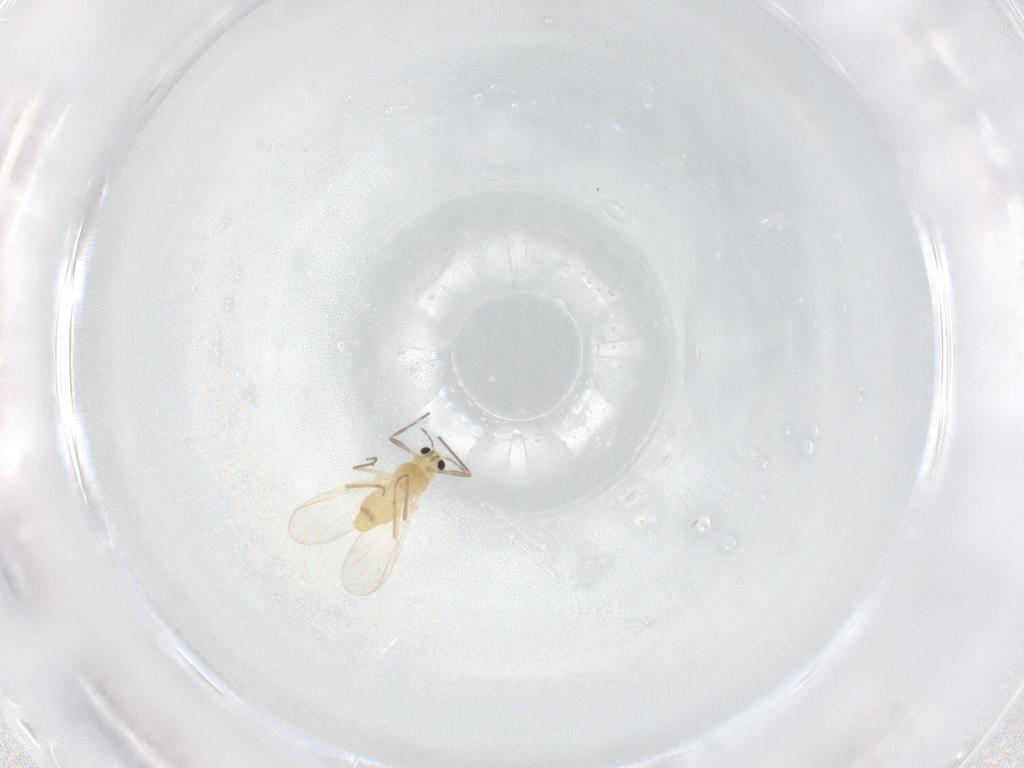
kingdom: Animalia
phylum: Arthropoda
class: Insecta
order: Diptera
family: Chironomidae
